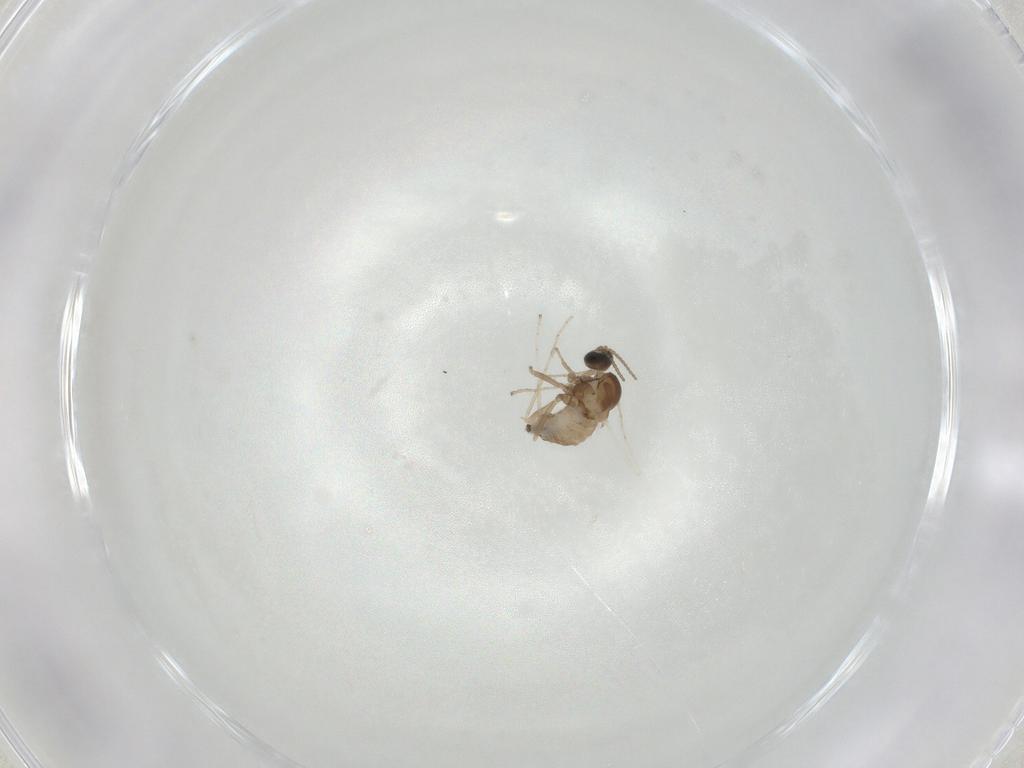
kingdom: Animalia
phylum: Arthropoda
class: Insecta
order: Diptera
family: Cecidomyiidae
